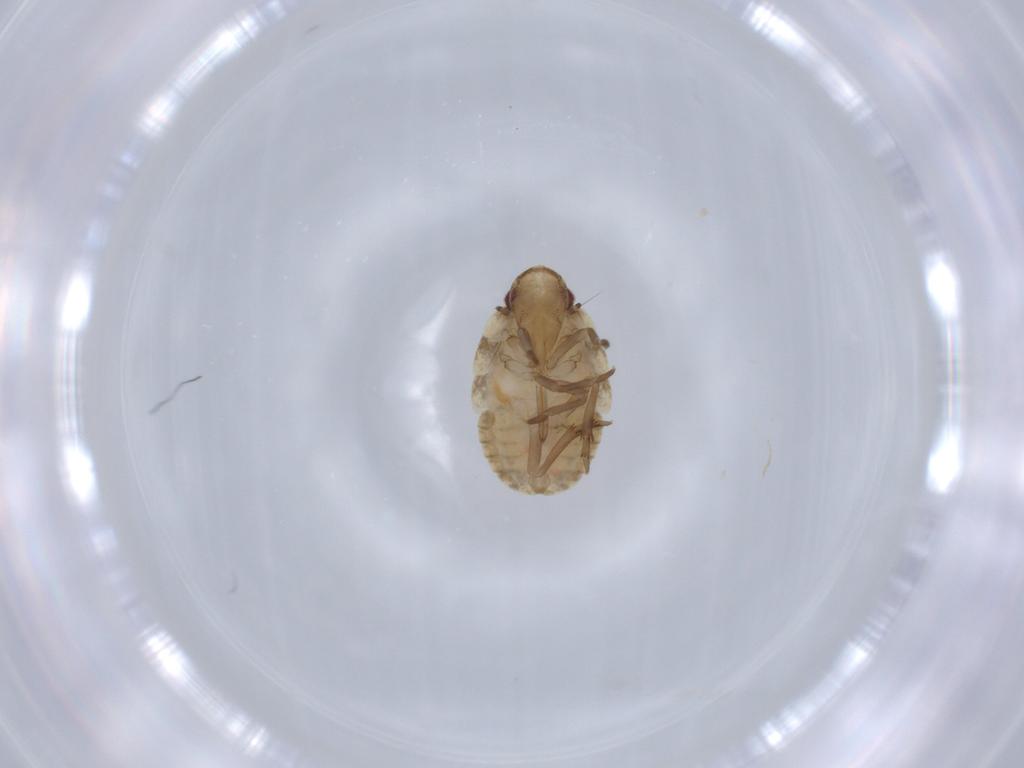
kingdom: Animalia
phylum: Arthropoda
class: Insecta
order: Hemiptera
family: Flatidae
